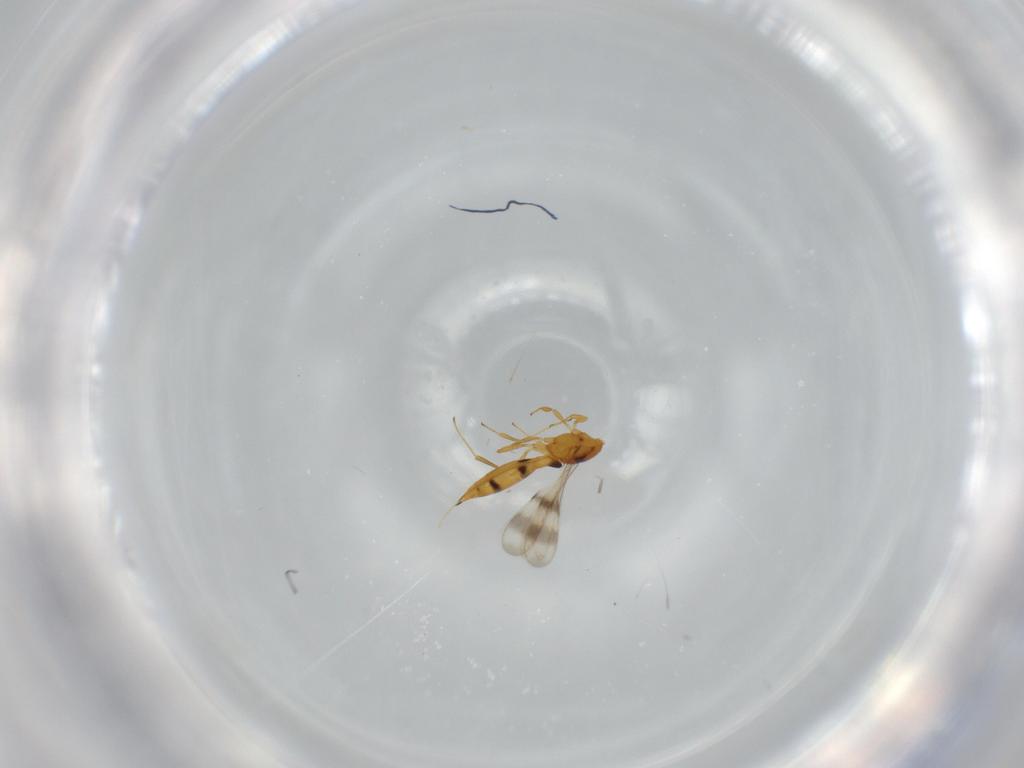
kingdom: Animalia
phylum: Arthropoda
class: Insecta
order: Hymenoptera
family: Scelionidae
